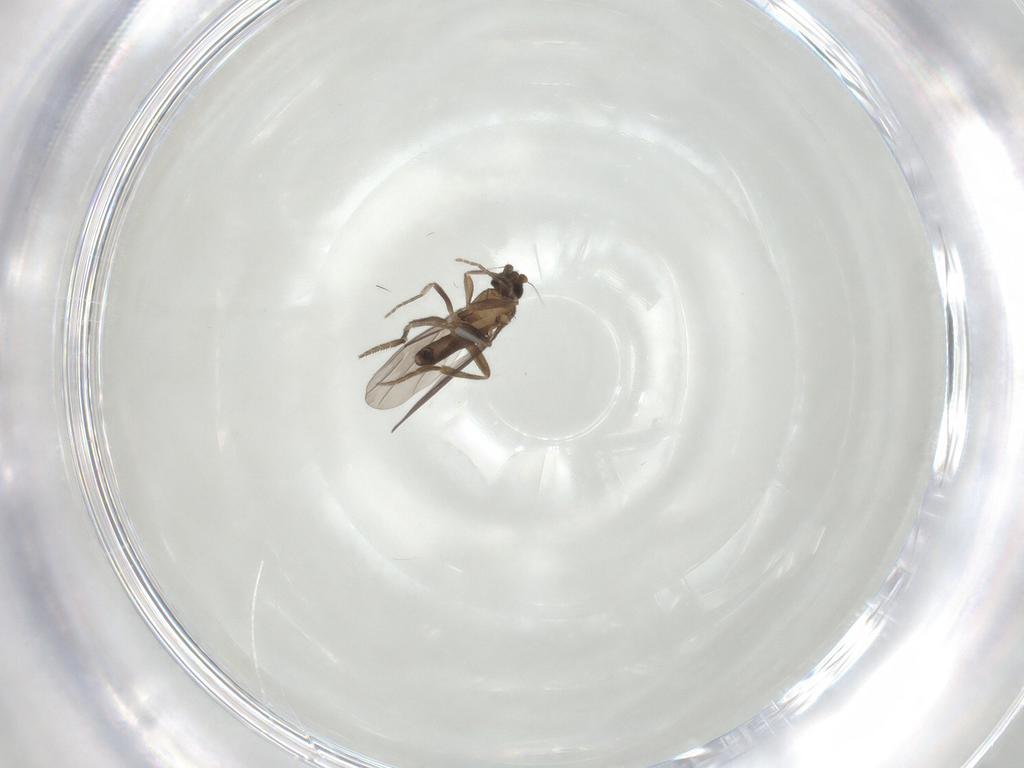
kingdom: Animalia
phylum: Arthropoda
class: Insecta
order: Diptera
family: Phoridae
